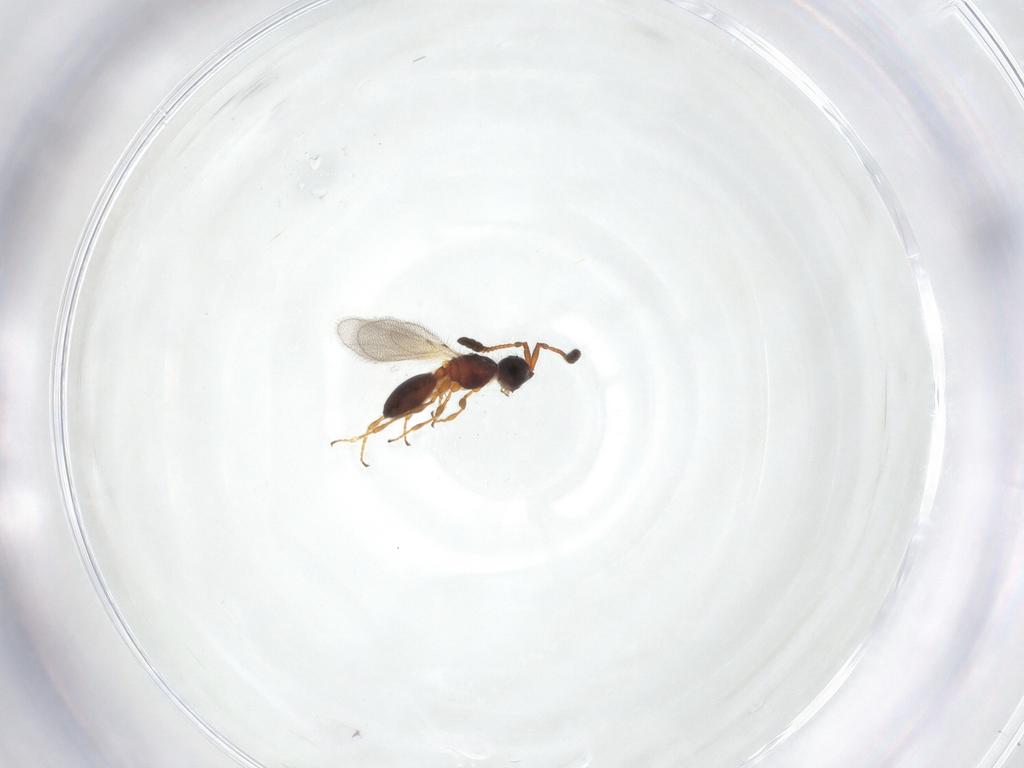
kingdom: Animalia
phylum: Arthropoda
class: Insecta
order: Hymenoptera
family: Diapriidae
